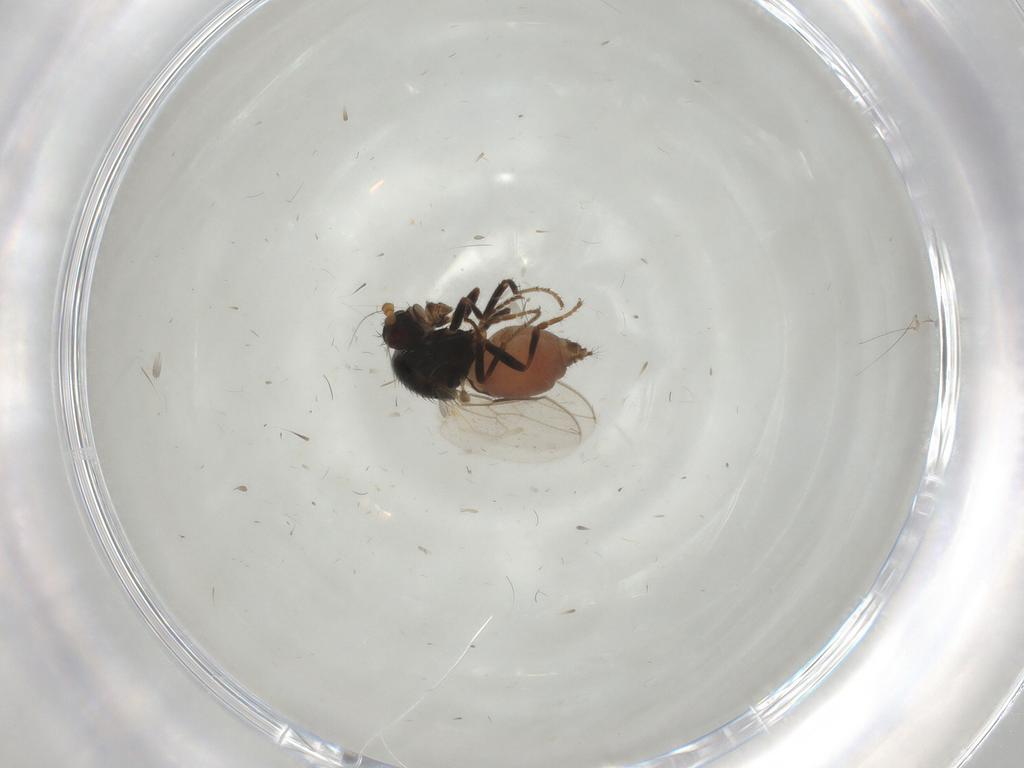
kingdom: Animalia
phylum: Arthropoda
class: Insecta
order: Diptera
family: Sphaeroceridae
